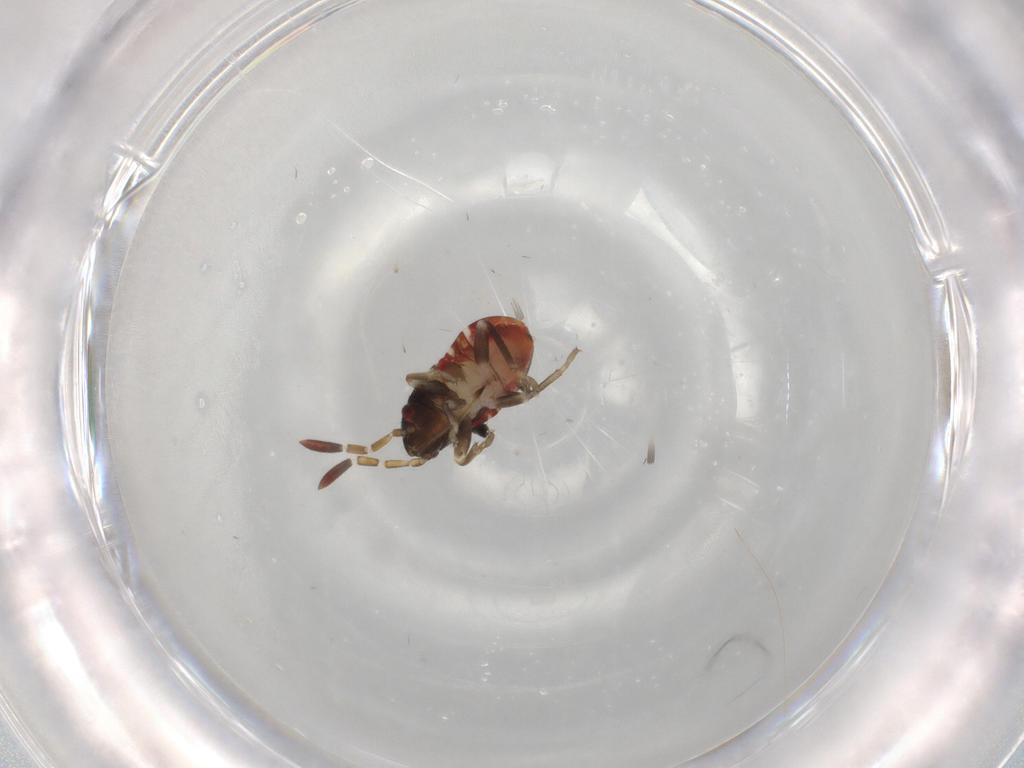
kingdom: Animalia
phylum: Arthropoda
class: Insecta
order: Hemiptera
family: Rhyparochromidae
